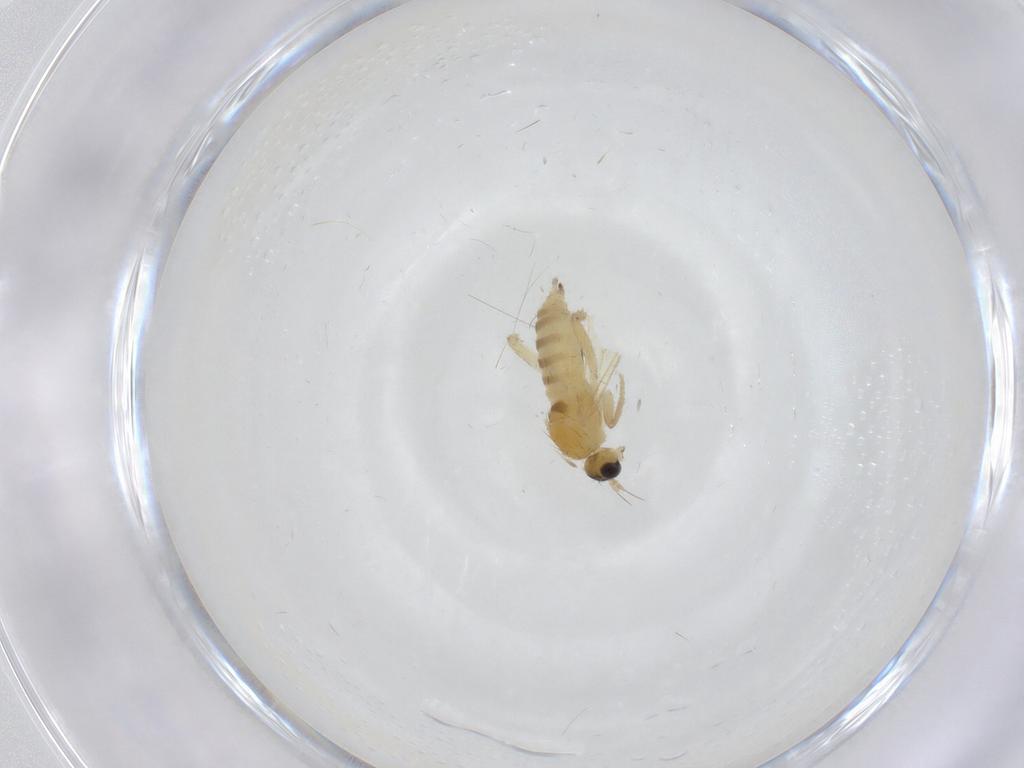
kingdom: Animalia
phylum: Arthropoda
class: Insecta
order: Diptera
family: Hybotidae
